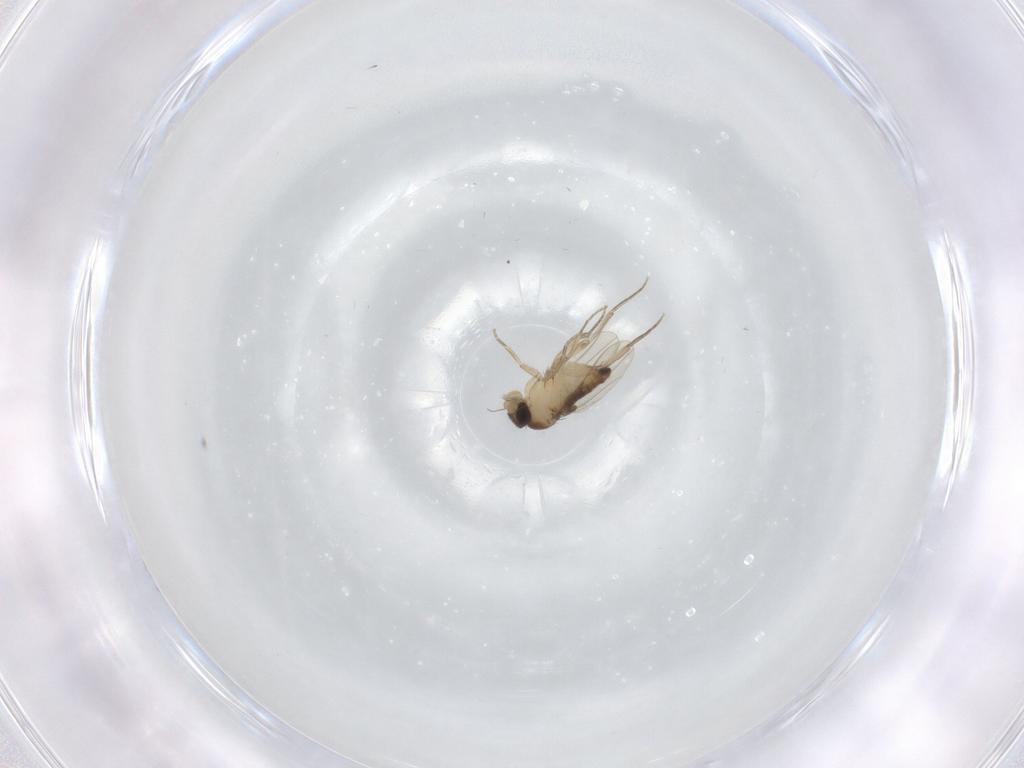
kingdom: Animalia
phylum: Arthropoda
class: Insecta
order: Diptera
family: Phoridae
